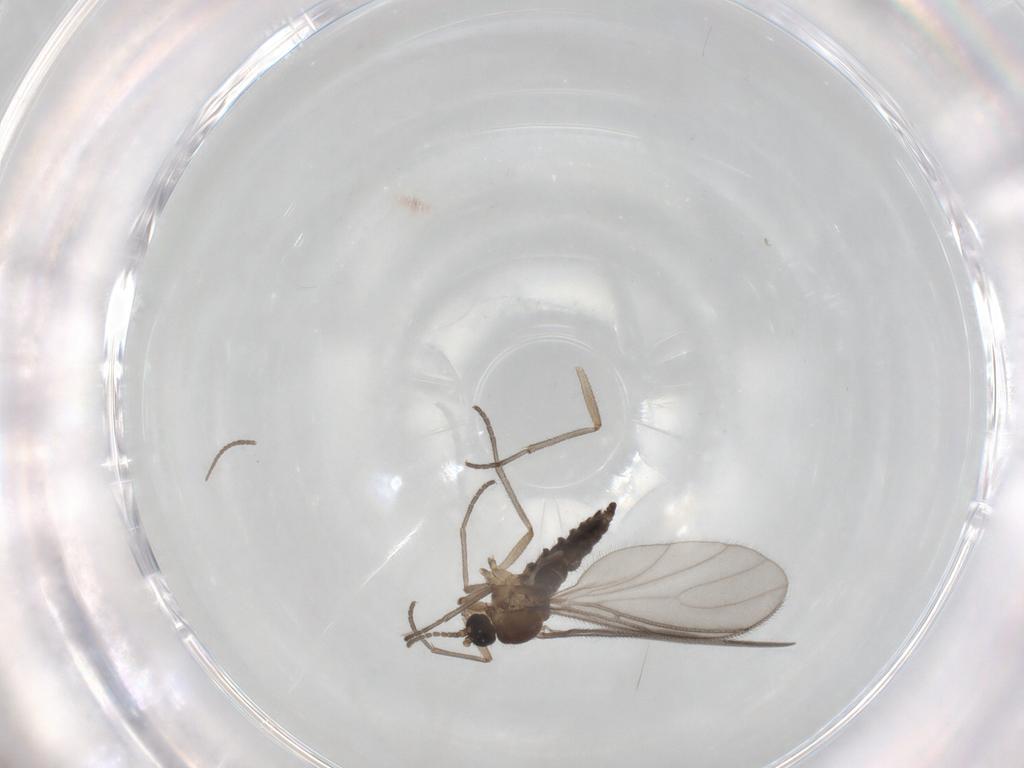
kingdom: Animalia
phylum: Arthropoda
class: Insecta
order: Diptera
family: Sciaridae
